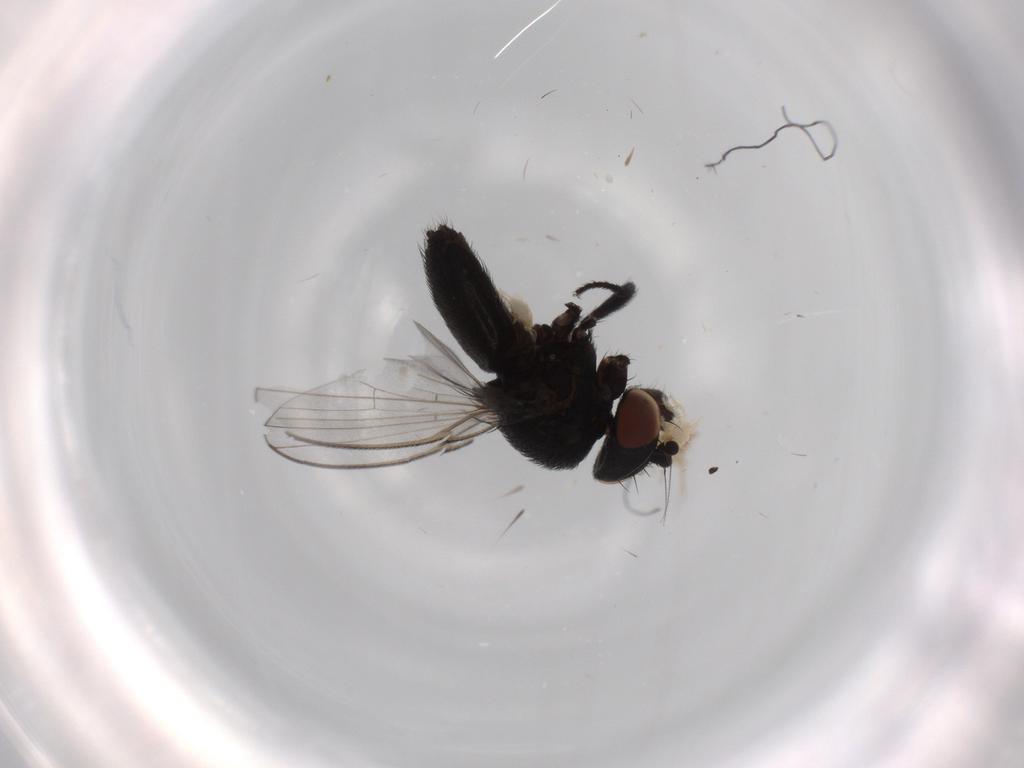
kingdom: Animalia
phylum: Arthropoda
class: Insecta
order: Diptera
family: Milichiidae
